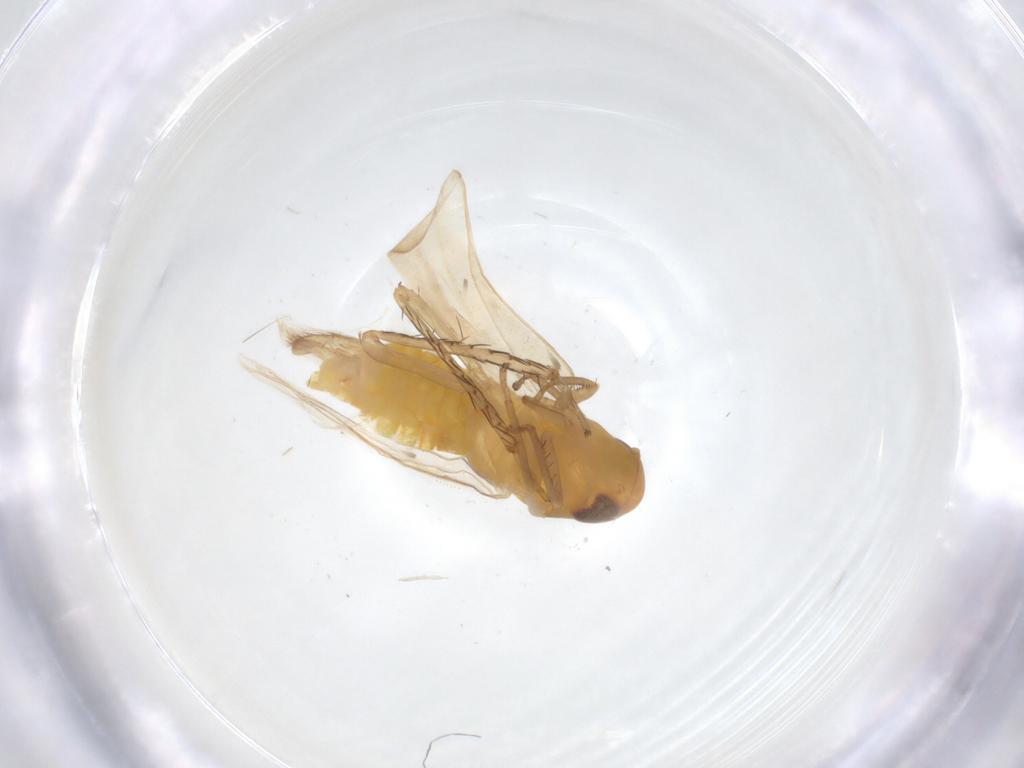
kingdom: Animalia
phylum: Arthropoda
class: Insecta
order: Hemiptera
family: Cicadellidae
